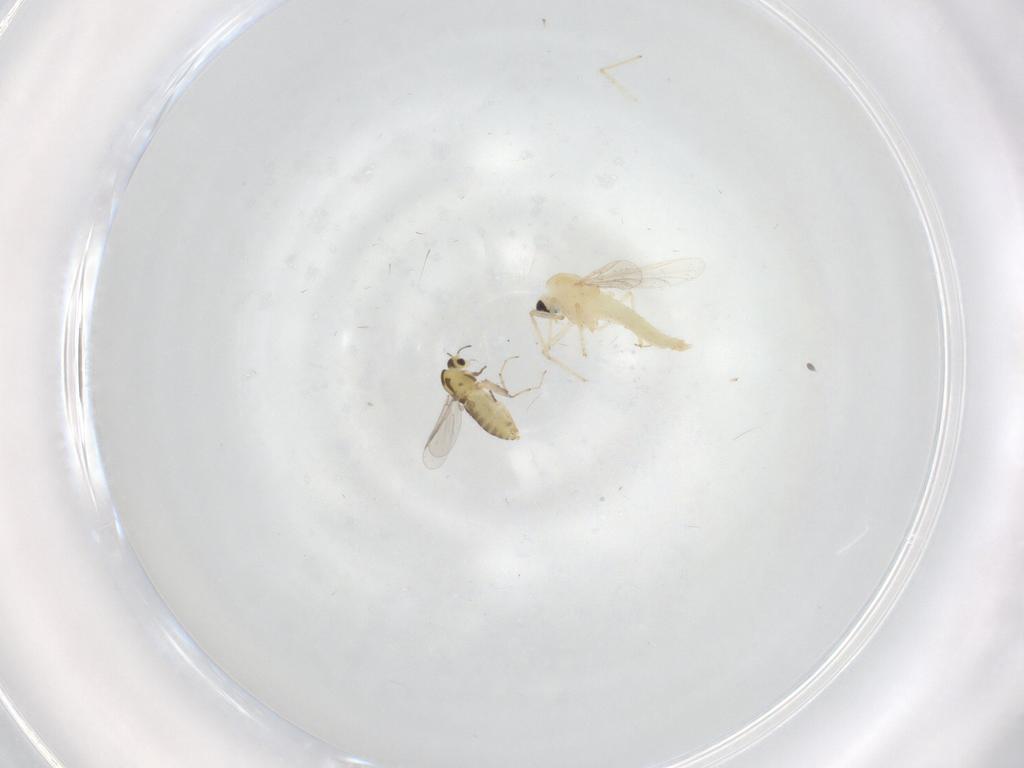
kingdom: Animalia
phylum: Arthropoda
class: Insecta
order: Diptera
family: Chironomidae
